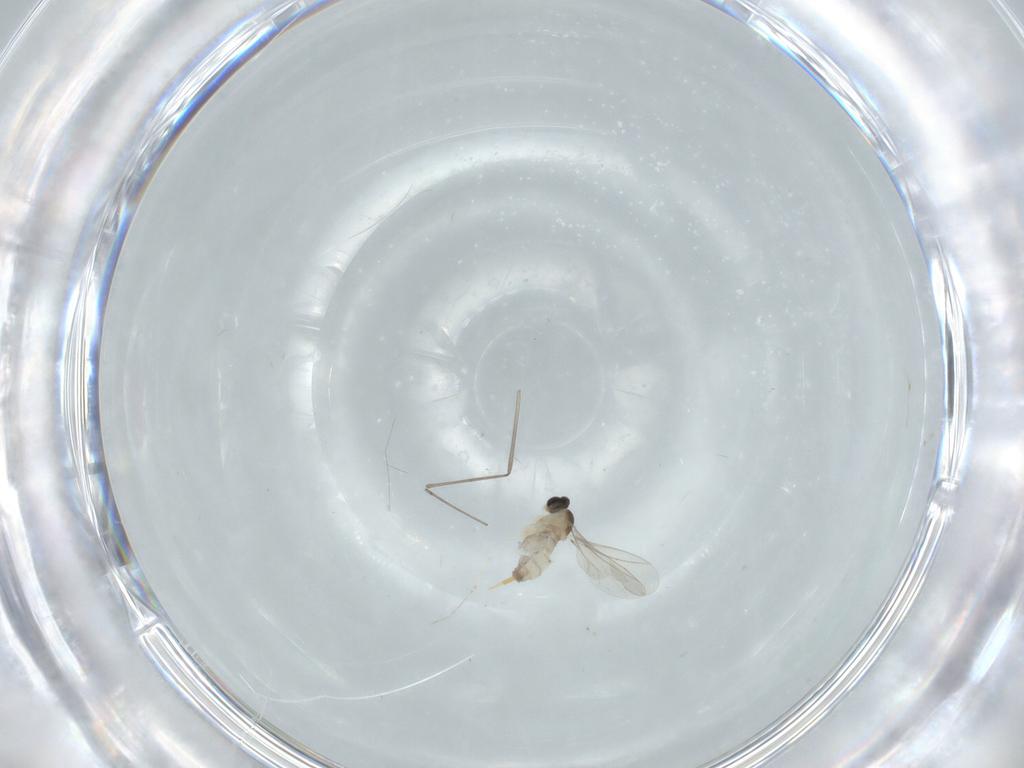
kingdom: Animalia
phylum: Arthropoda
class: Insecta
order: Diptera
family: Cecidomyiidae
